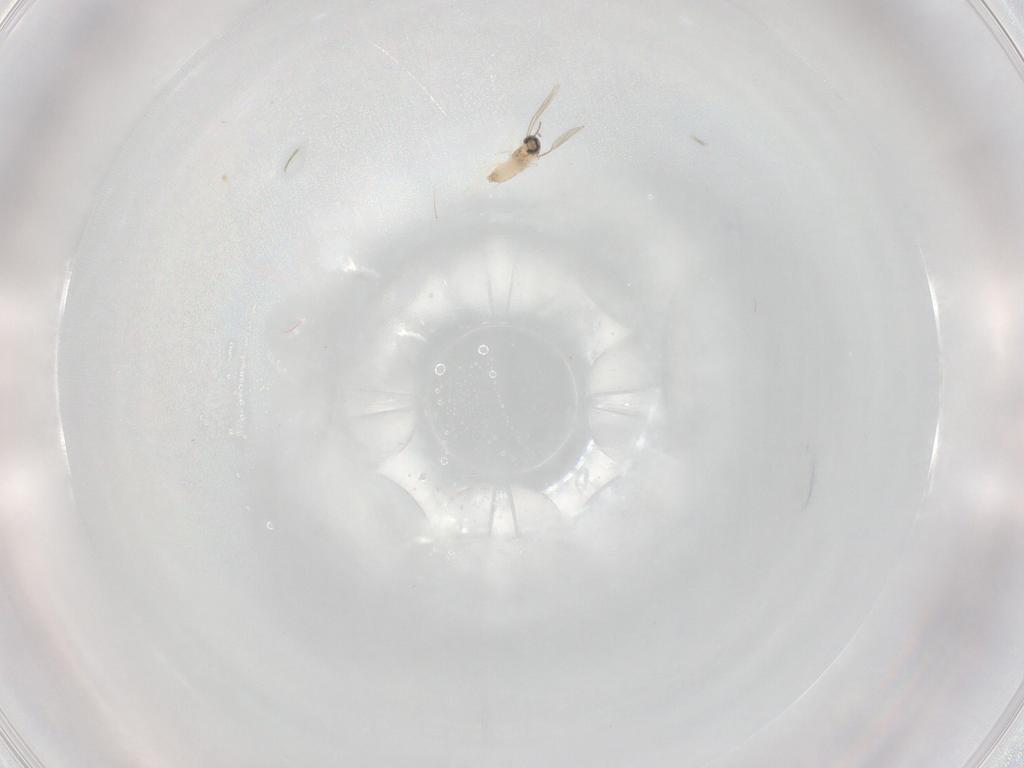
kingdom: Animalia
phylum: Arthropoda
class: Insecta
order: Diptera
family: Cecidomyiidae
